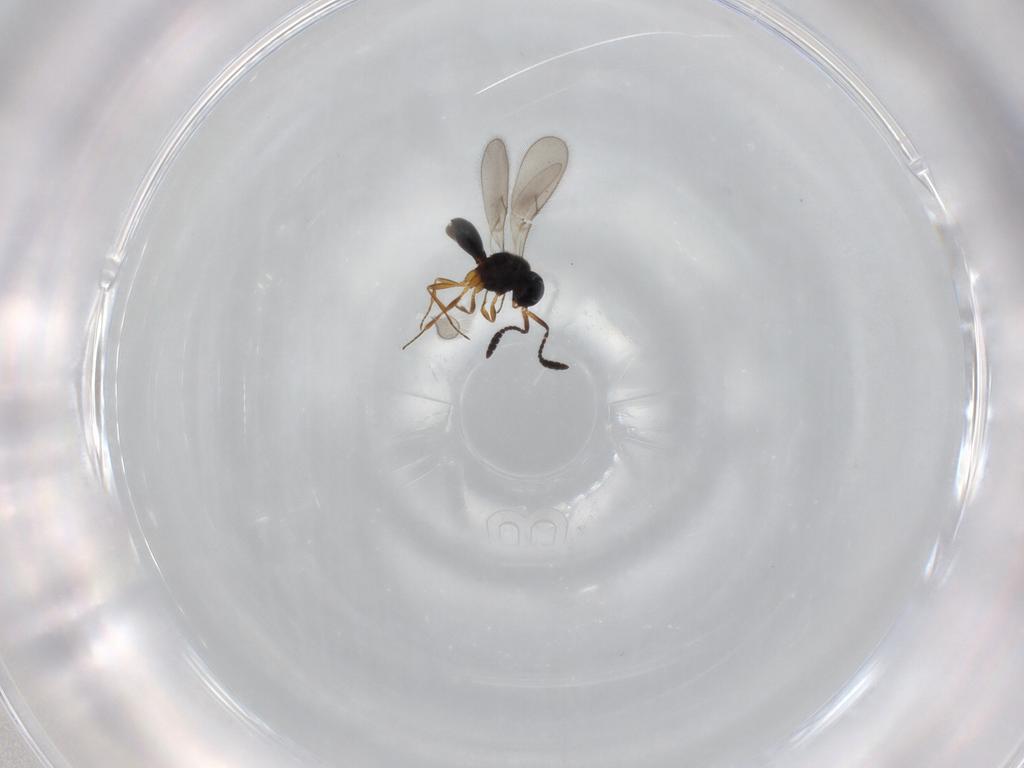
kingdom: Animalia
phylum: Arthropoda
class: Insecta
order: Hymenoptera
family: Scelionidae
